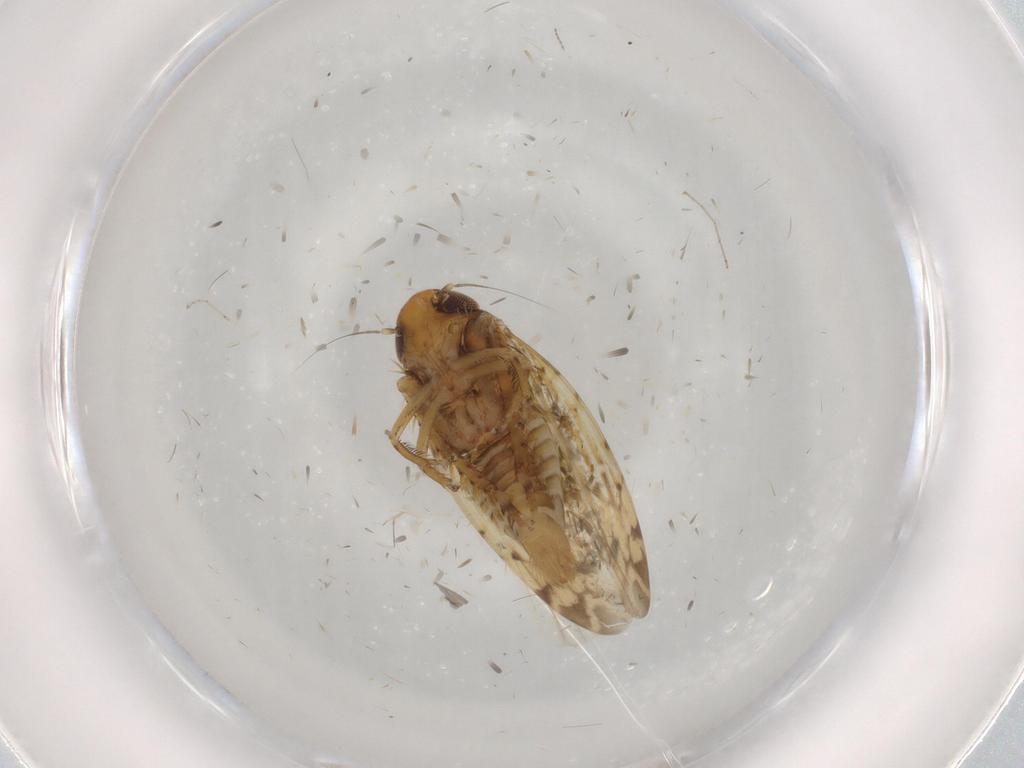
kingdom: Animalia
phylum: Arthropoda
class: Insecta
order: Hemiptera
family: Cicadellidae
